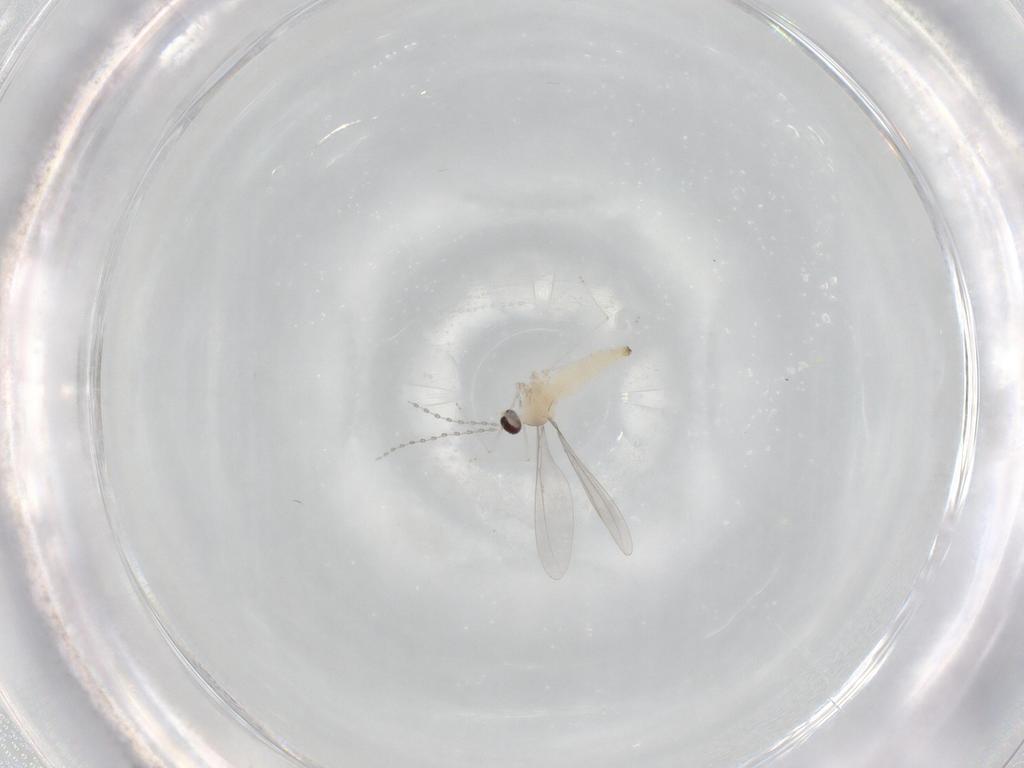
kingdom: Animalia
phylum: Arthropoda
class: Insecta
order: Diptera
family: Cecidomyiidae
